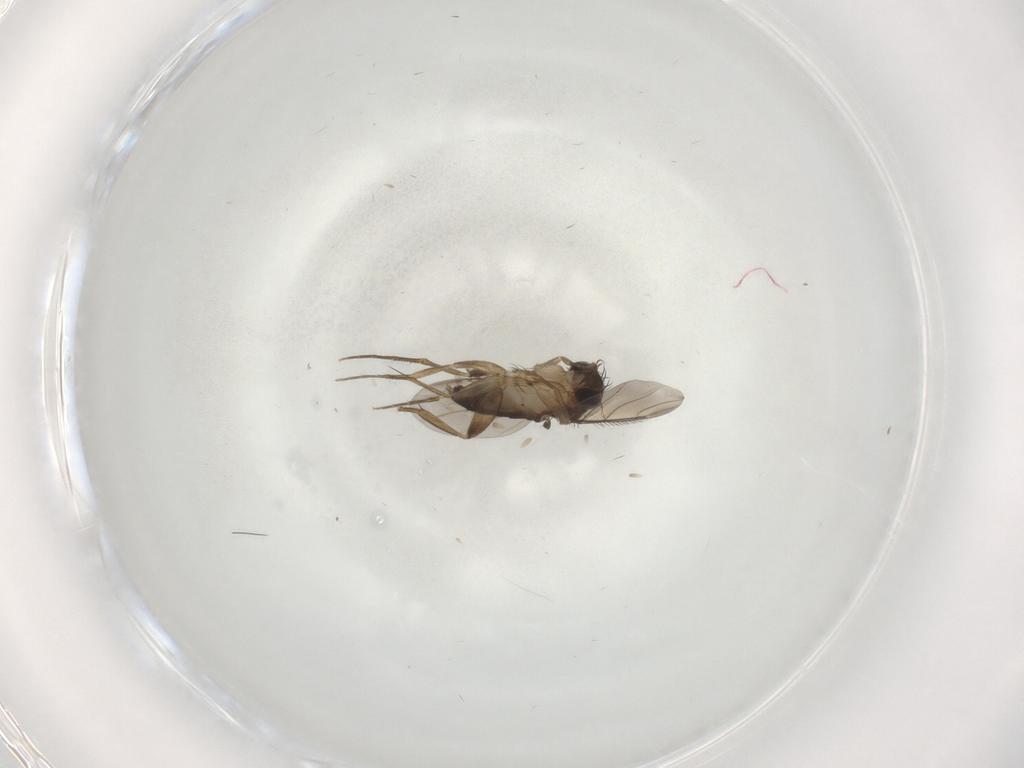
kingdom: Animalia
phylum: Arthropoda
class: Insecta
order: Diptera
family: Phoridae
